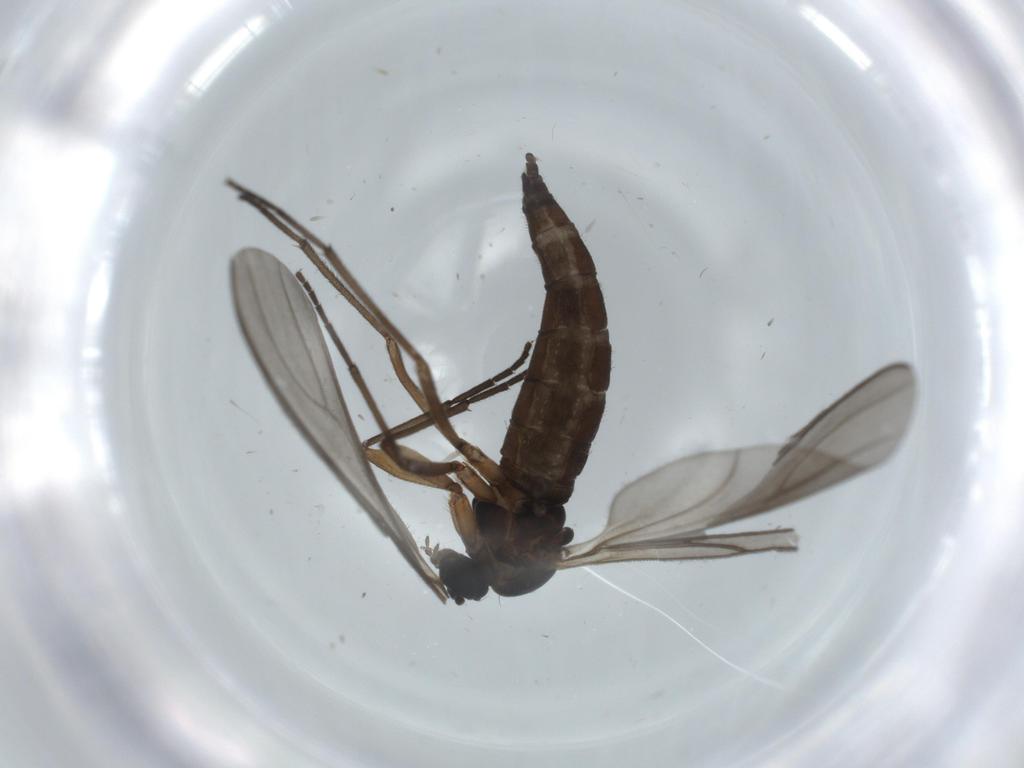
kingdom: Animalia
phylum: Arthropoda
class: Insecta
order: Diptera
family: Sciaridae
